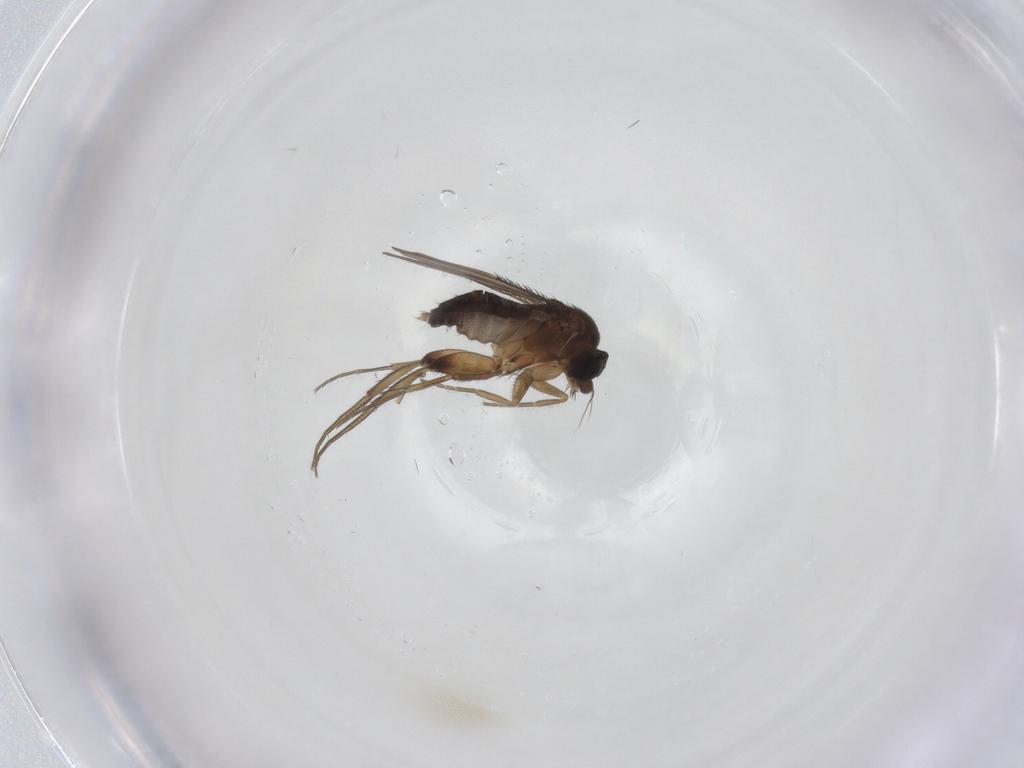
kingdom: Animalia
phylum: Arthropoda
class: Insecta
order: Diptera
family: Phoridae
